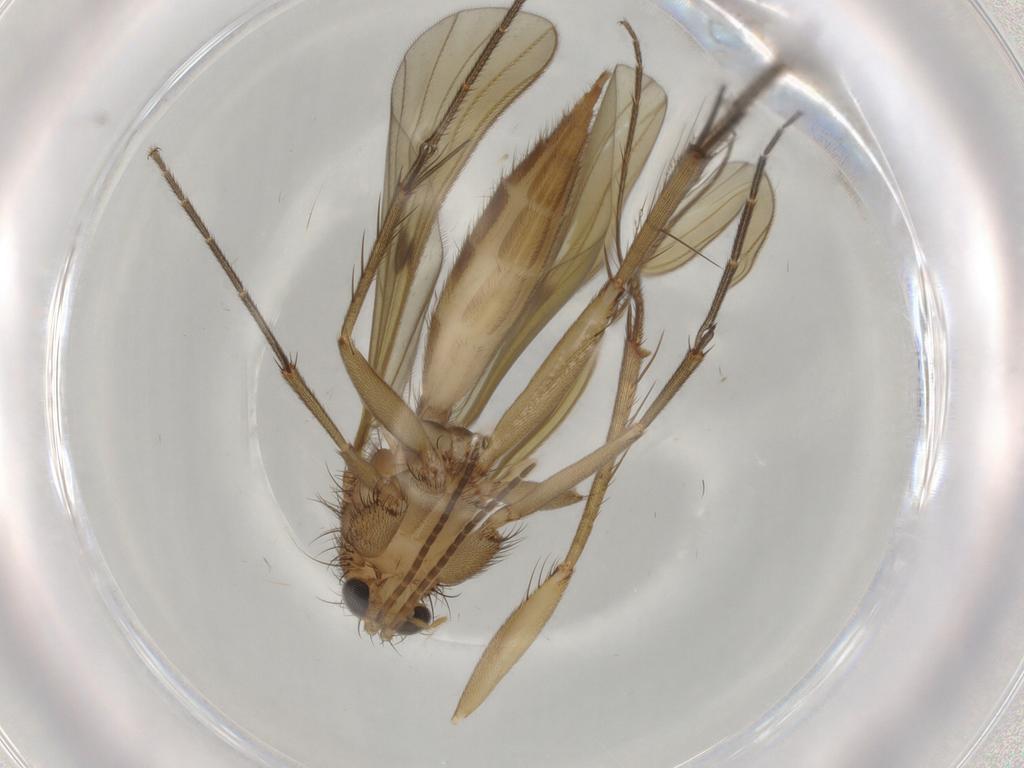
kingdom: Animalia
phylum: Arthropoda
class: Insecta
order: Diptera
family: Mycetophilidae
